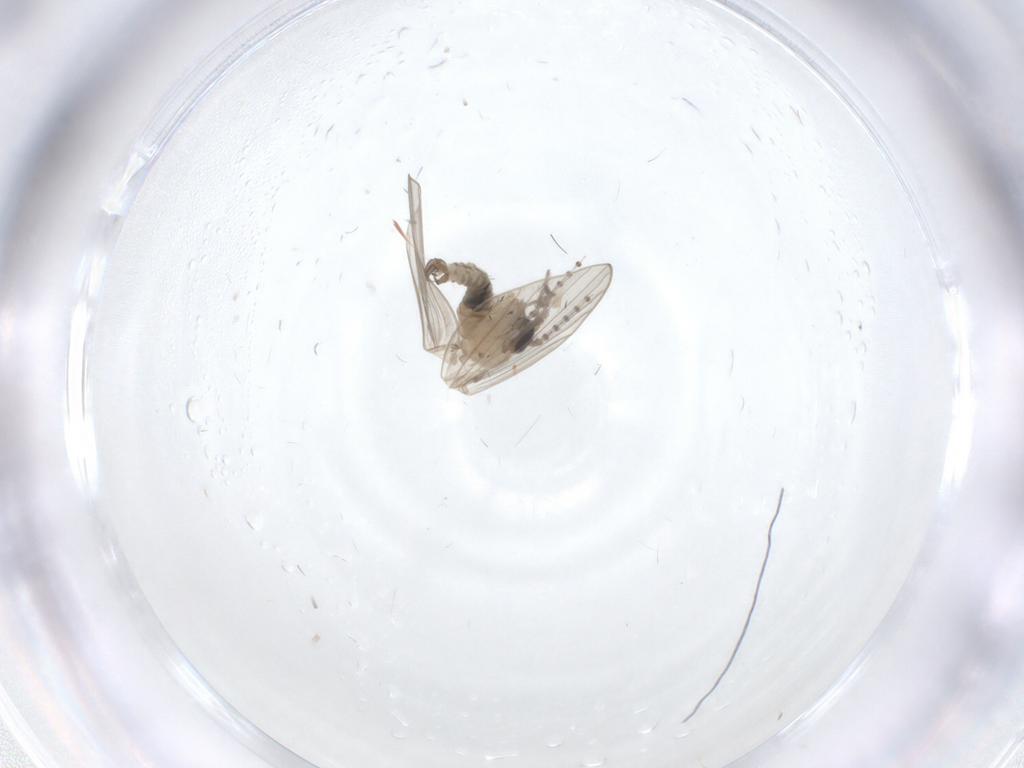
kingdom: Animalia
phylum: Arthropoda
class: Insecta
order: Diptera
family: Psychodidae
